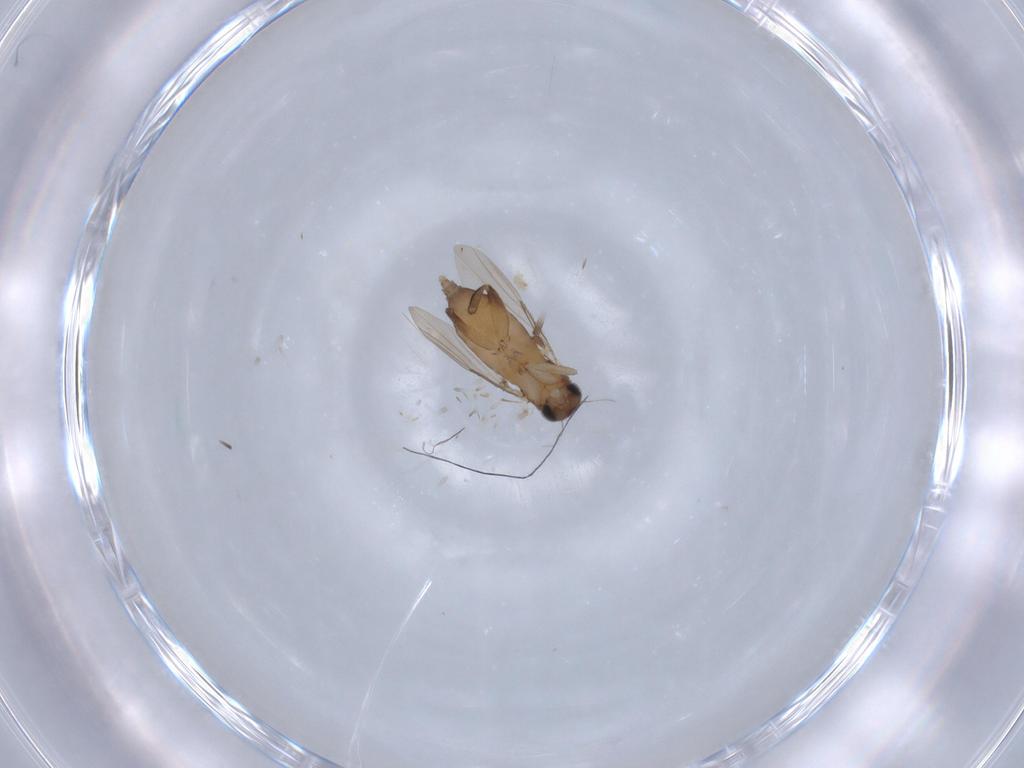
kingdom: Animalia
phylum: Arthropoda
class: Insecta
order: Diptera
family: Phoridae
